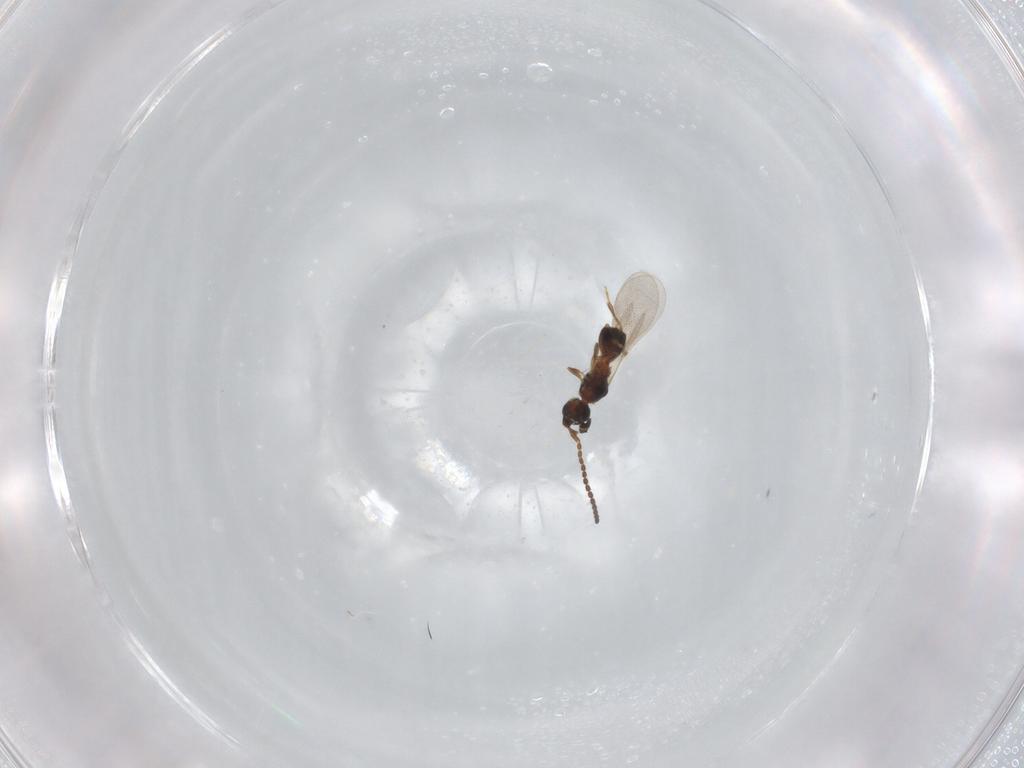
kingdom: Animalia
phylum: Arthropoda
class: Insecta
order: Hymenoptera
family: Diapriidae
